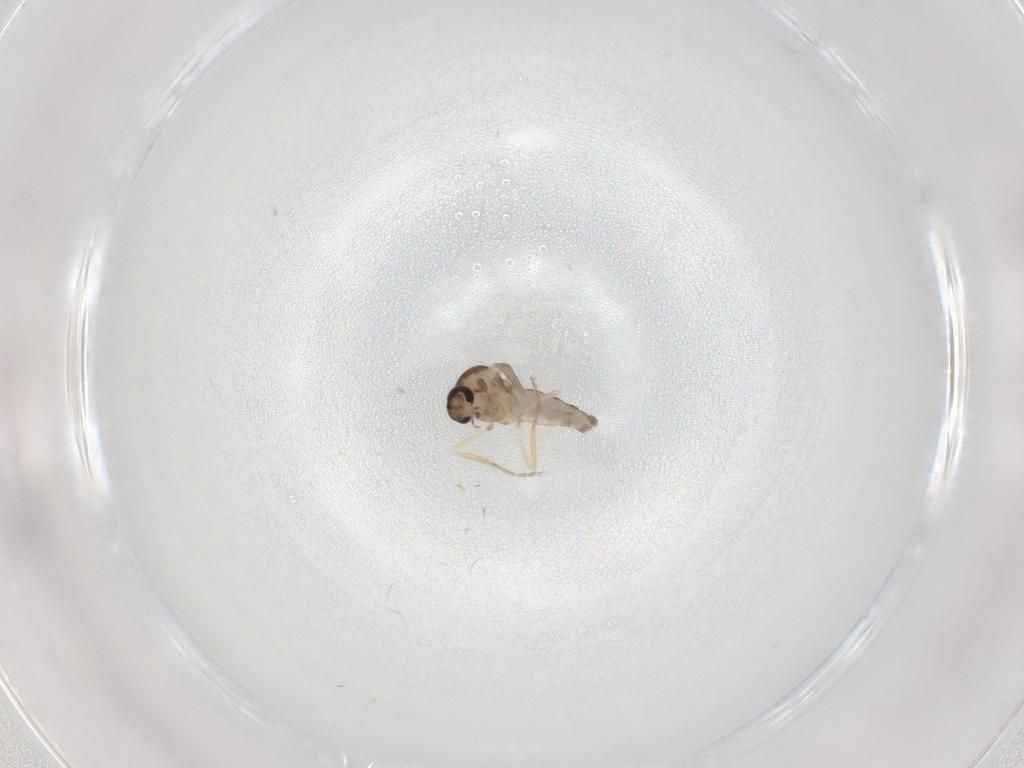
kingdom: Animalia
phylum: Arthropoda
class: Insecta
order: Diptera
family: Ceratopogonidae
